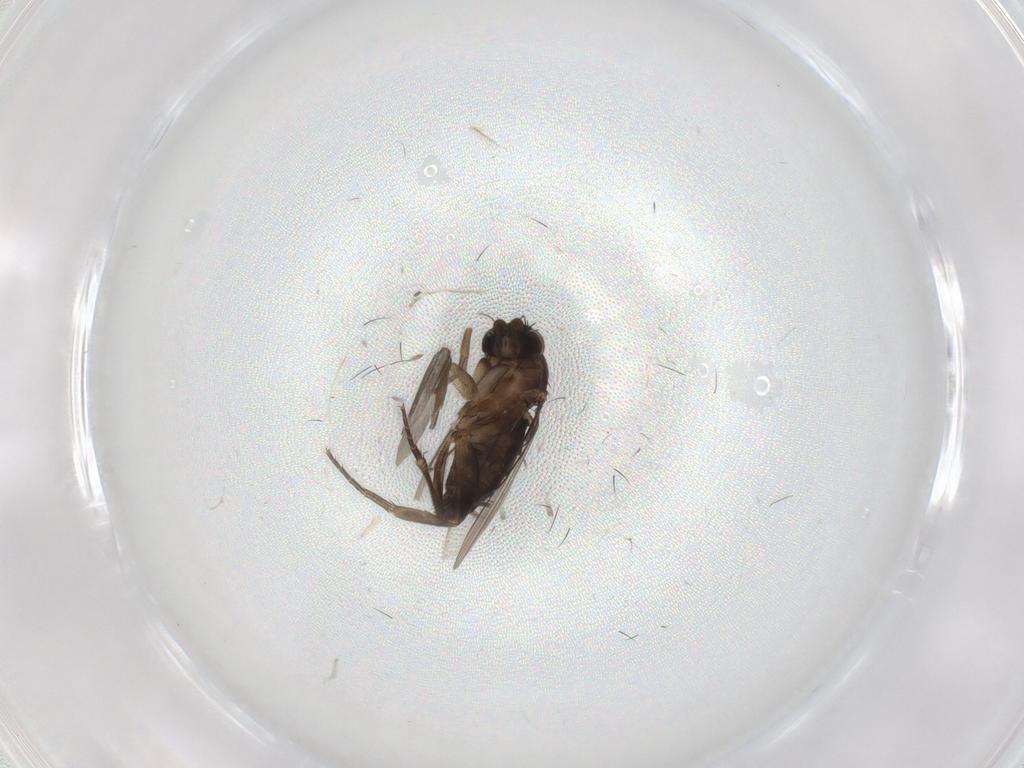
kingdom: Animalia
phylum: Arthropoda
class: Insecta
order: Diptera
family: Phoridae
